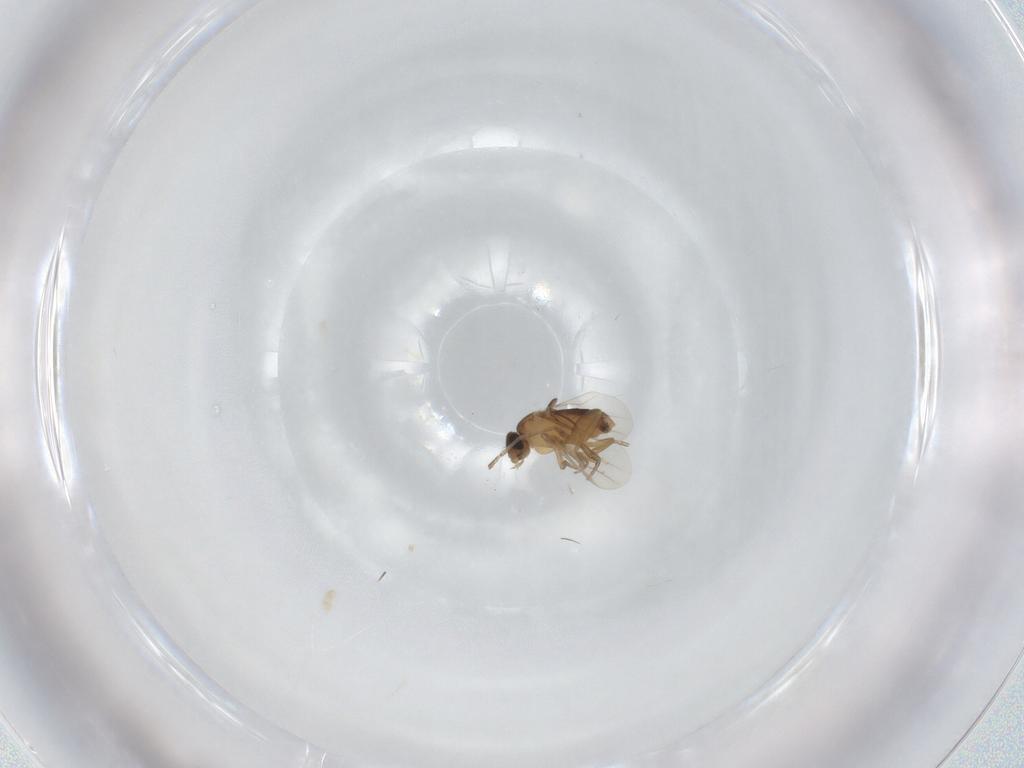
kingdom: Animalia
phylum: Arthropoda
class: Insecta
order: Diptera
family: Phoridae
